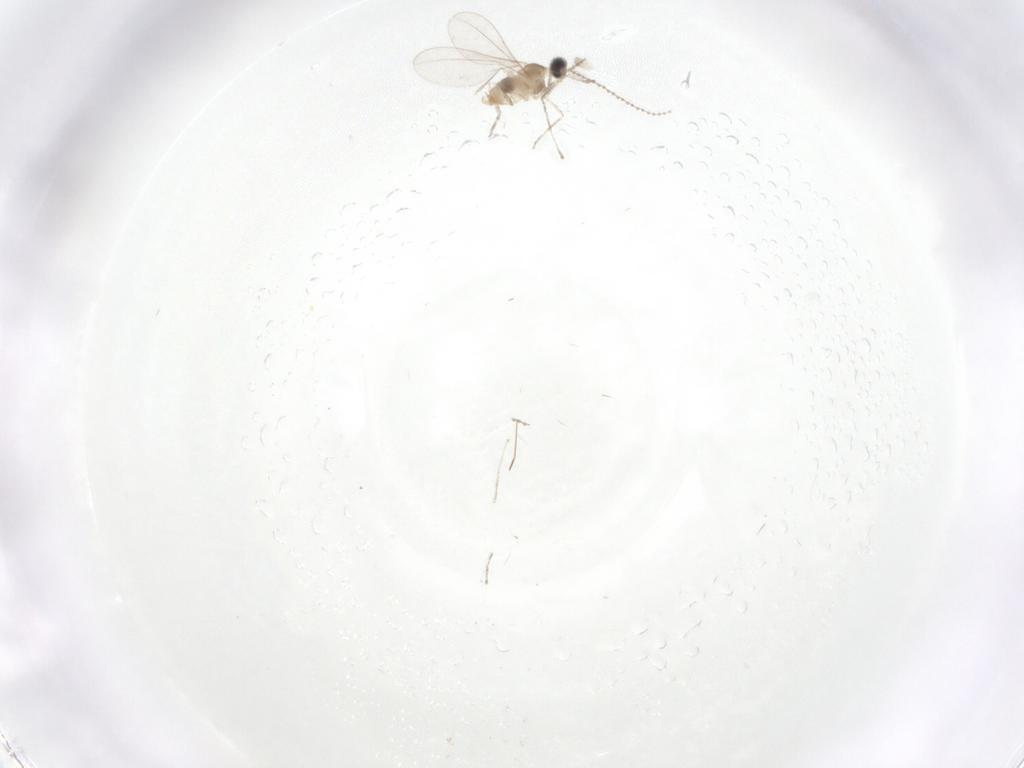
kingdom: Animalia
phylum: Arthropoda
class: Insecta
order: Diptera
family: Cecidomyiidae
